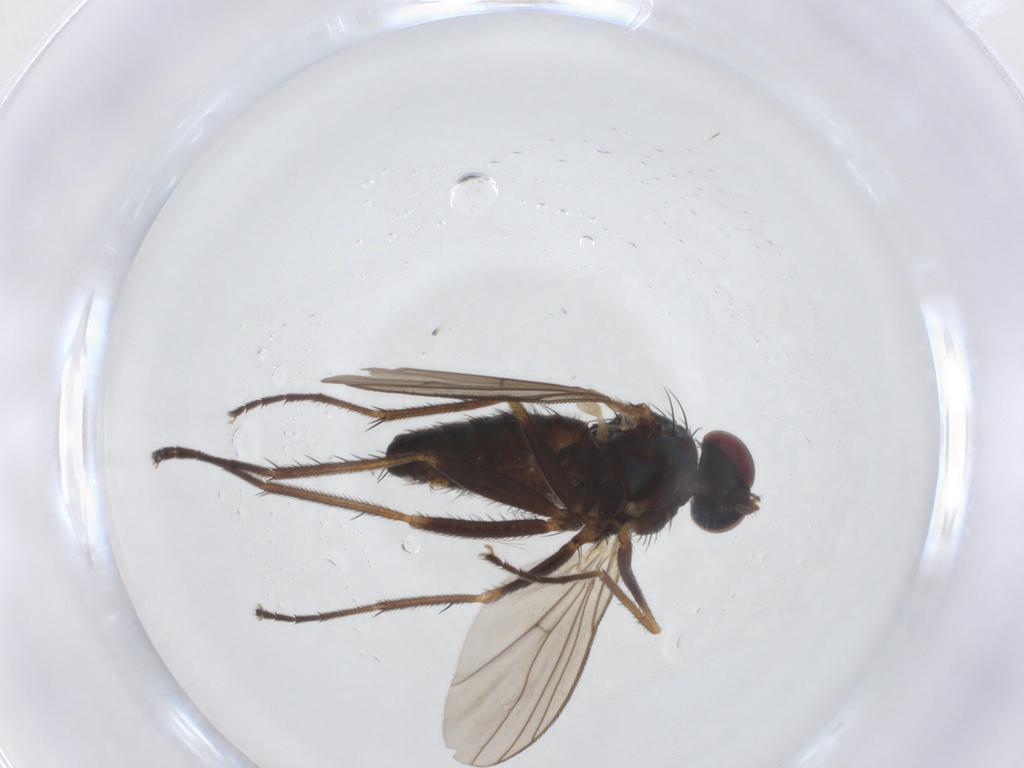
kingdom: Animalia
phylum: Arthropoda
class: Insecta
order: Diptera
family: Dolichopodidae
